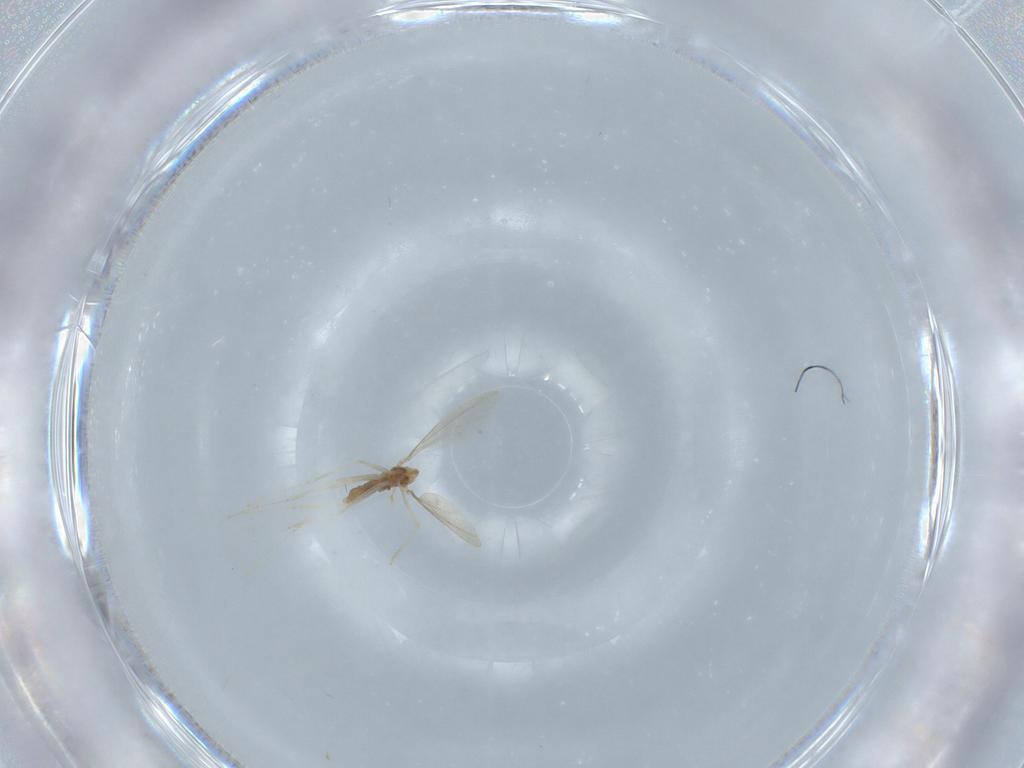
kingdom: Animalia
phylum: Arthropoda
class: Insecta
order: Diptera
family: Cecidomyiidae
